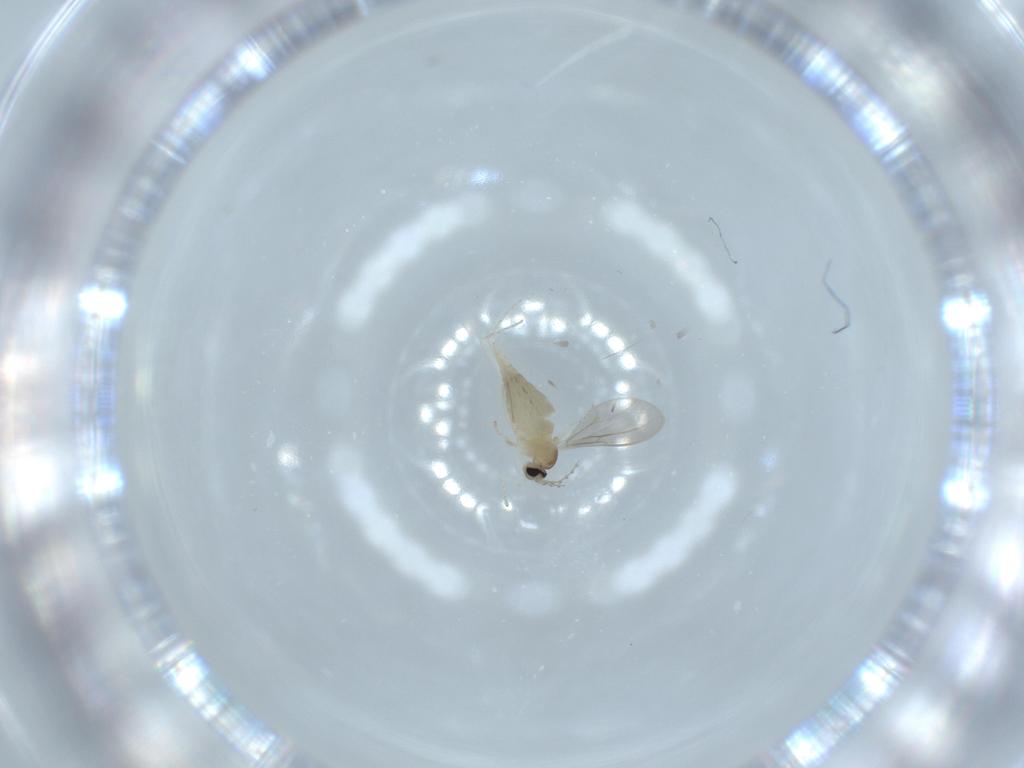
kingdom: Animalia
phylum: Arthropoda
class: Insecta
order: Diptera
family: Cecidomyiidae
